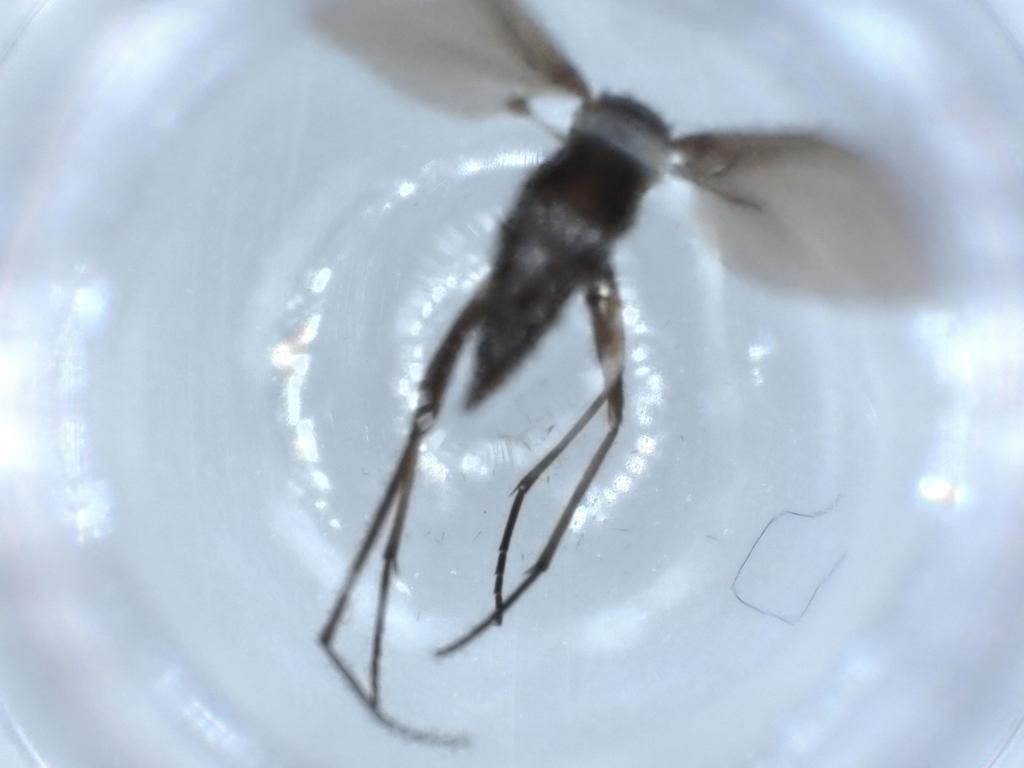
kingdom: Animalia
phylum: Arthropoda
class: Insecta
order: Diptera
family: Sciaridae
